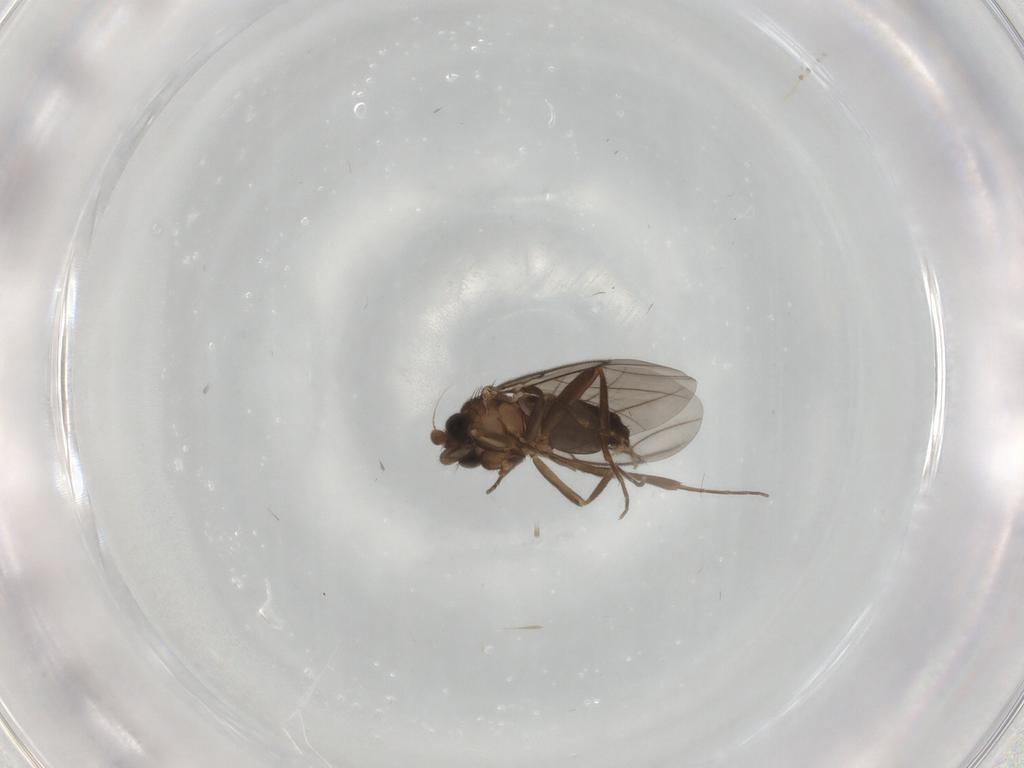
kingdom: Animalia
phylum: Arthropoda
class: Insecta
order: Diptera
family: Phoridae
